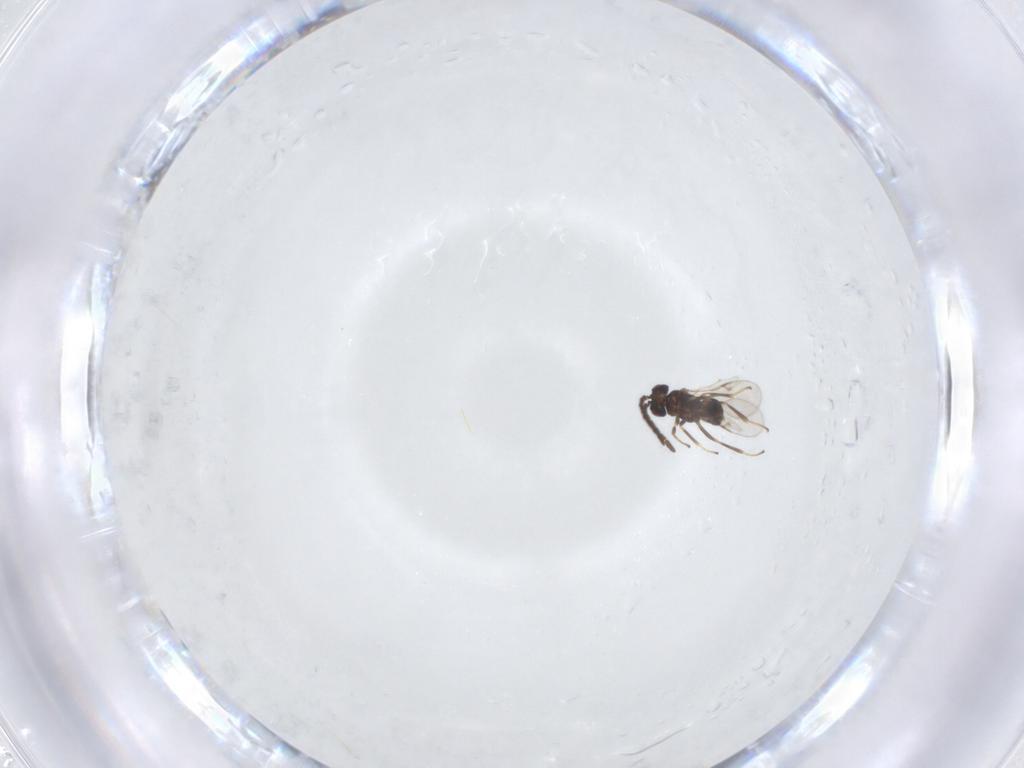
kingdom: Animalia
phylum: Arthropoda
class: Insecta
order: Hymenoptera
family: Encyrtidae
